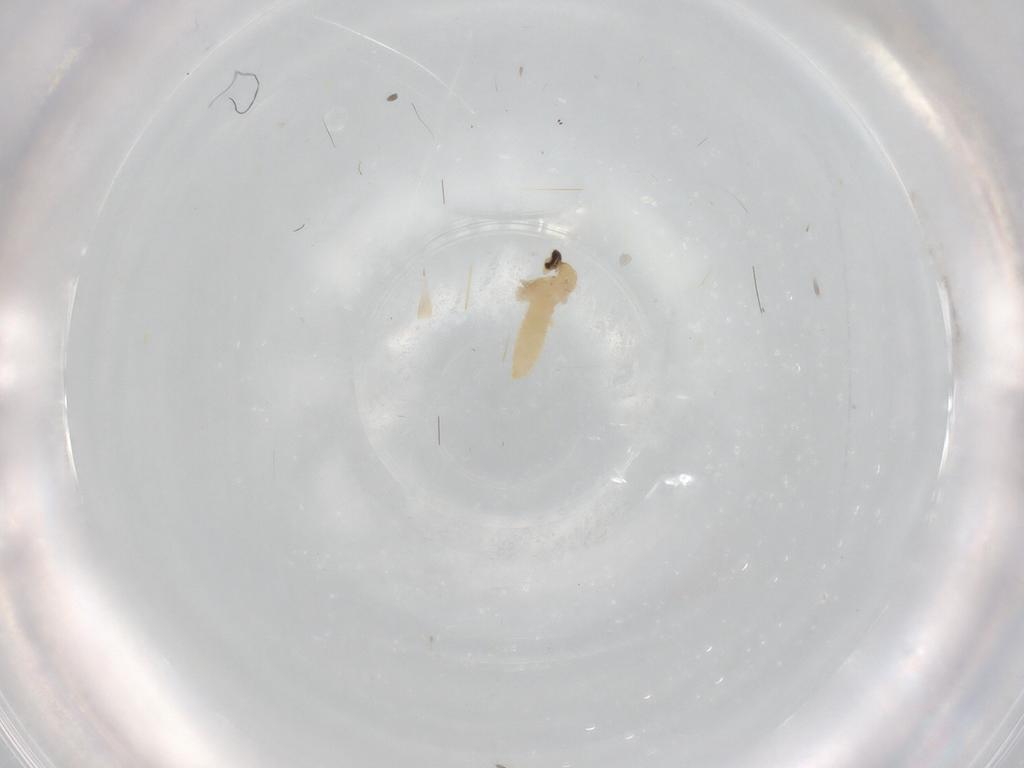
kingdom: Animalia
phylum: Arthropoda
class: Insecta
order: Diptera
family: Cecidomyiidae
